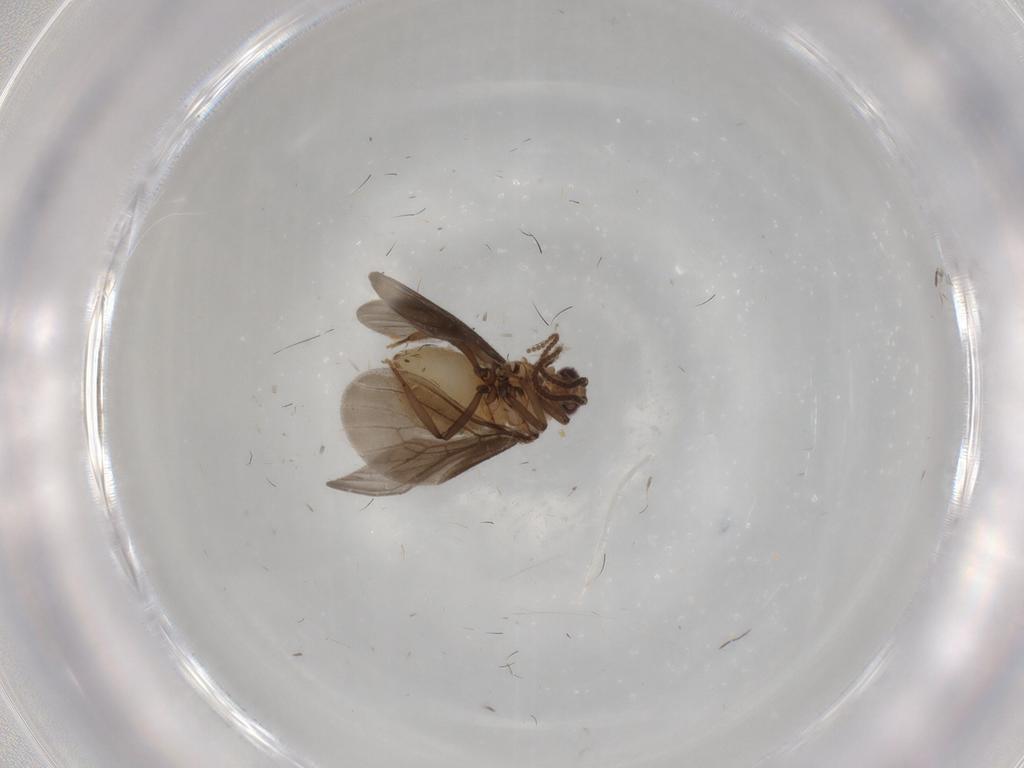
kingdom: Animalia
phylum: Arthropoda
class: Insecta
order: Neuroptera
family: Coniopterygidae
